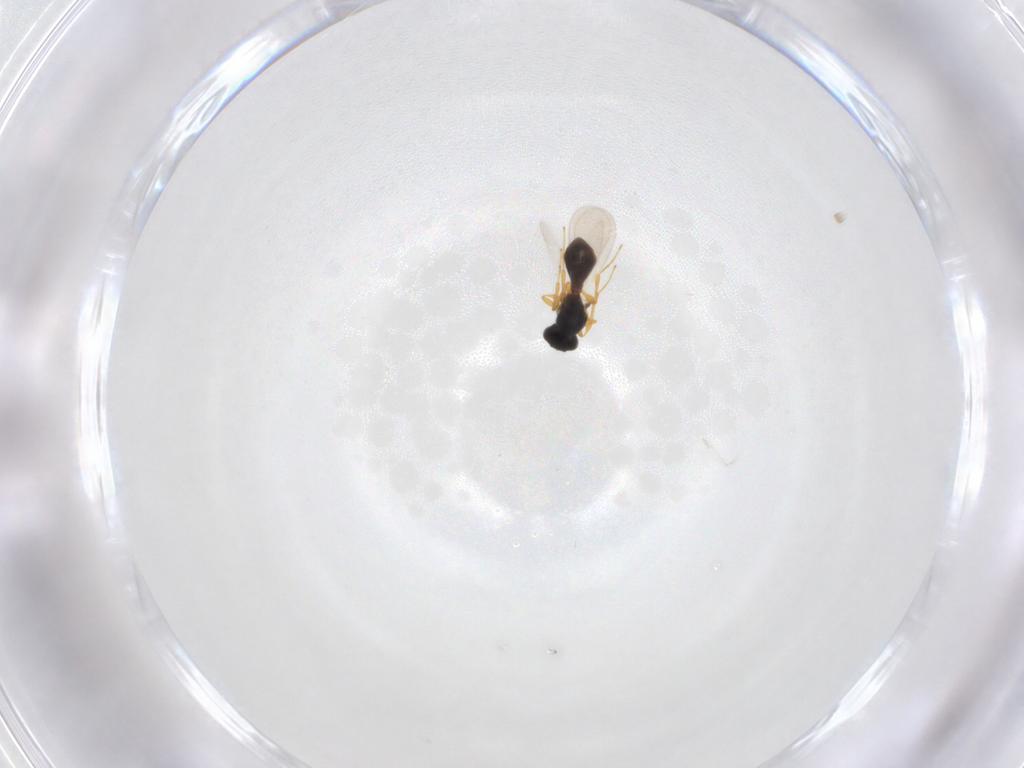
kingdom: Animalia
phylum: Arthropoda
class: Insecta
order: Hymenoptera
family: Platygastridae
